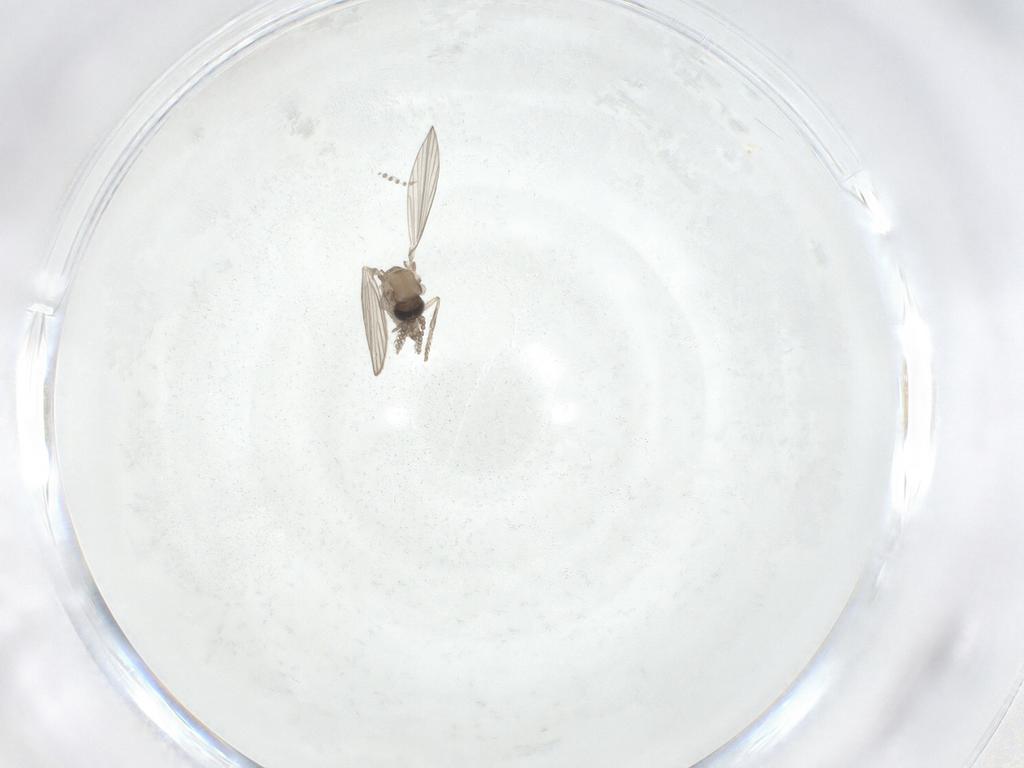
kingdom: Animalia
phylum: Arthropoda
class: Insecta
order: Diptera
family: Psychodidae
